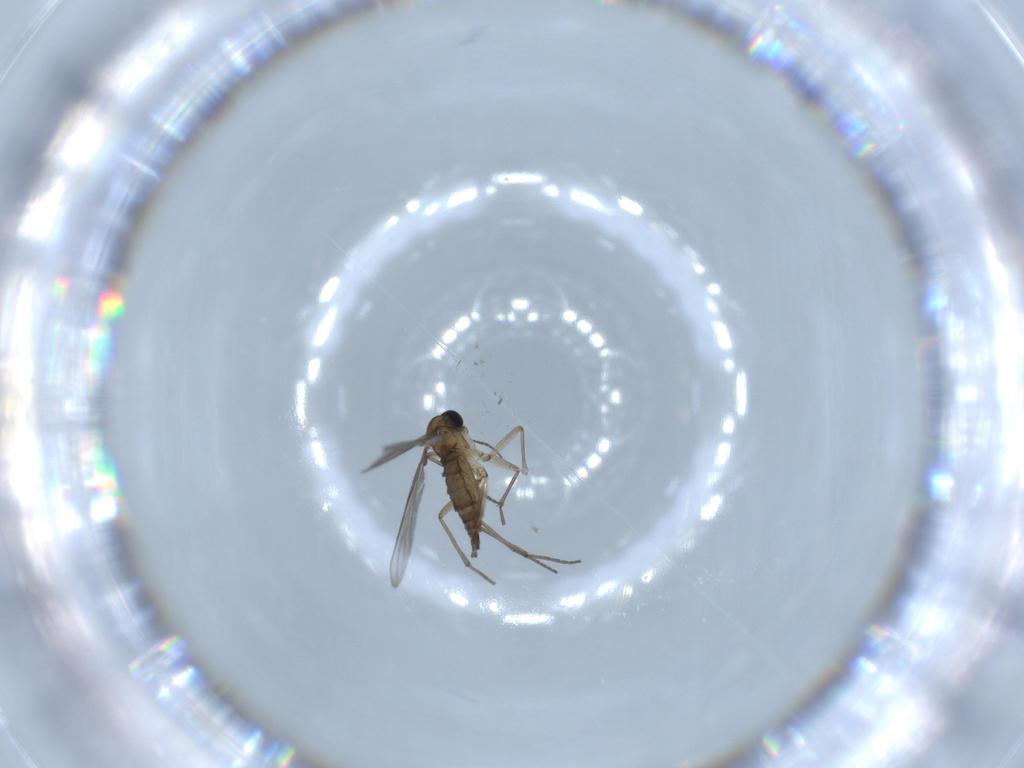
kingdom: Animalia
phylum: Arthropoda
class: Insecta
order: Diptera
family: Sciaridae
